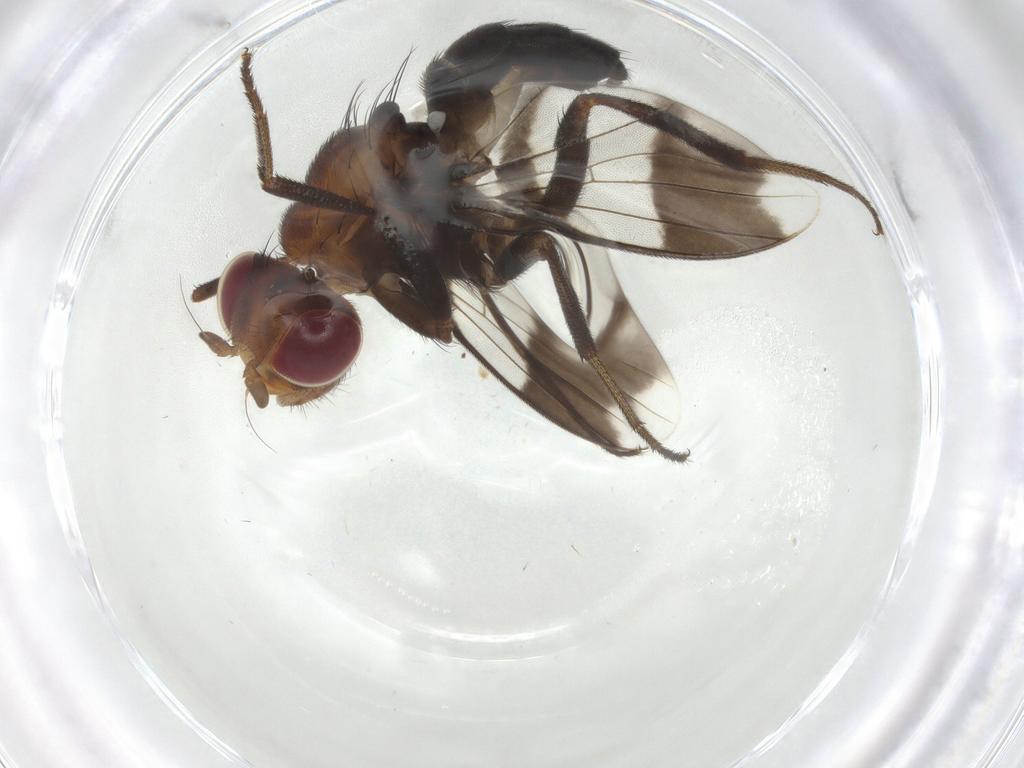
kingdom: Animalia
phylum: Arthropoda
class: Insecta
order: Diptera
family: Richardiidae
